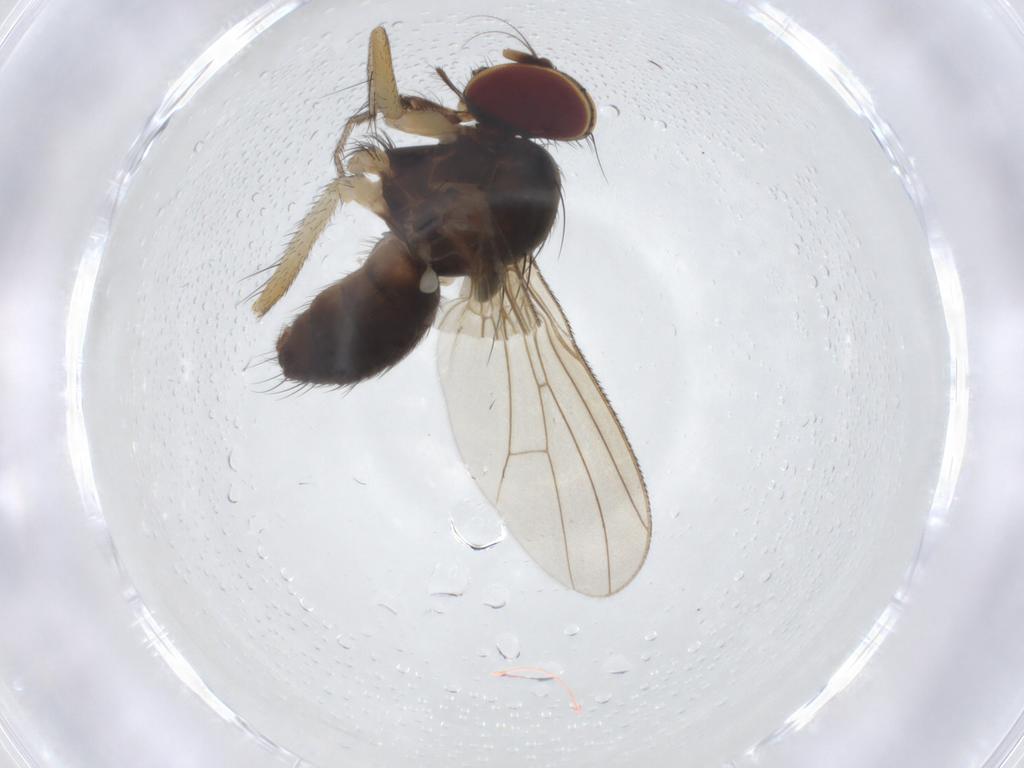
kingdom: Animalia
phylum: Arthropoda
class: Insecta
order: Diptera
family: Anthomyiidae
